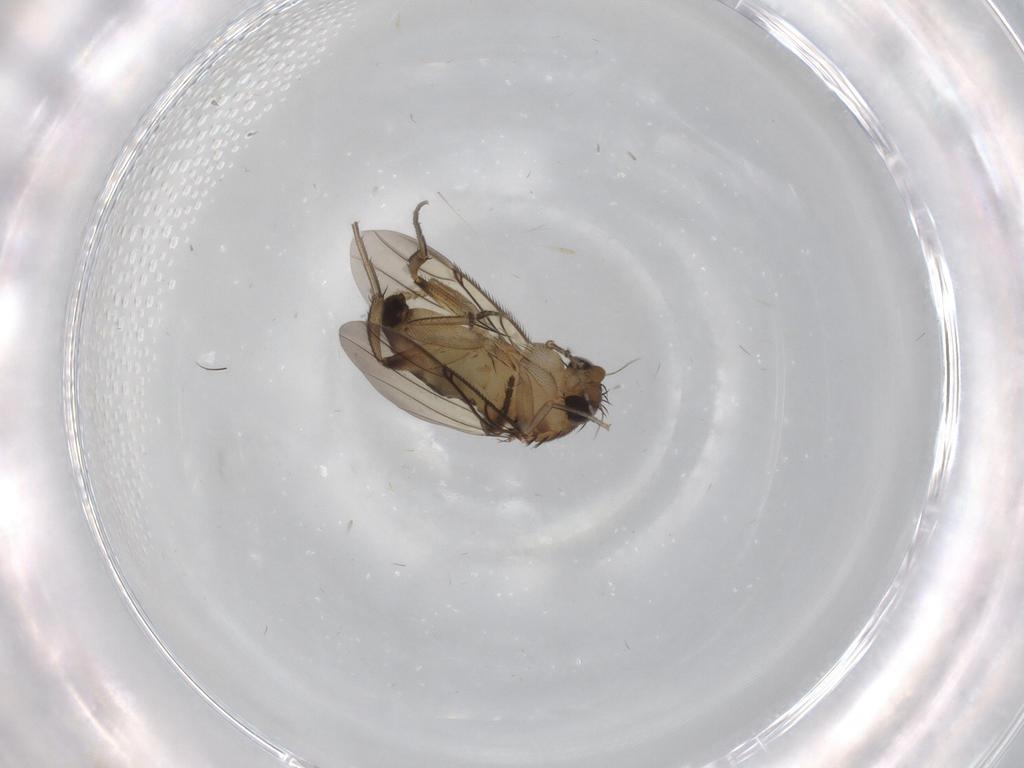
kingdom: Animalia
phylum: Arthropoda
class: Insecta
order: Diptera
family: Phoridae
